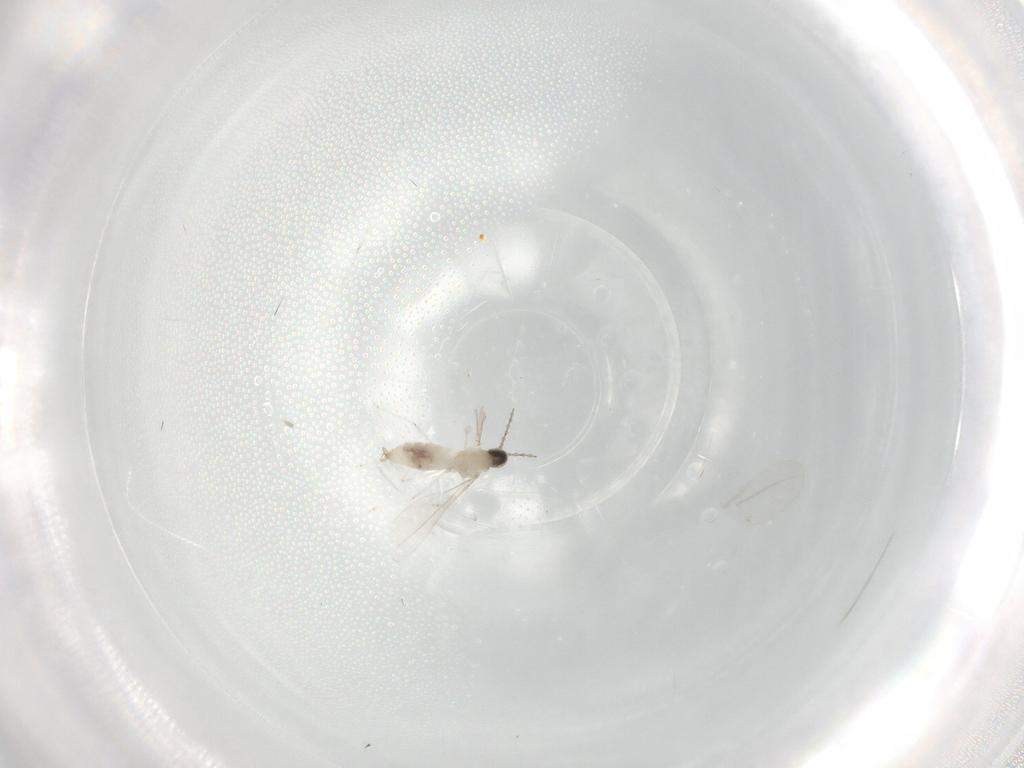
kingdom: Animalia
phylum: Arthropoda
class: Insecta
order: Diptera
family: Cecidomyiidae
